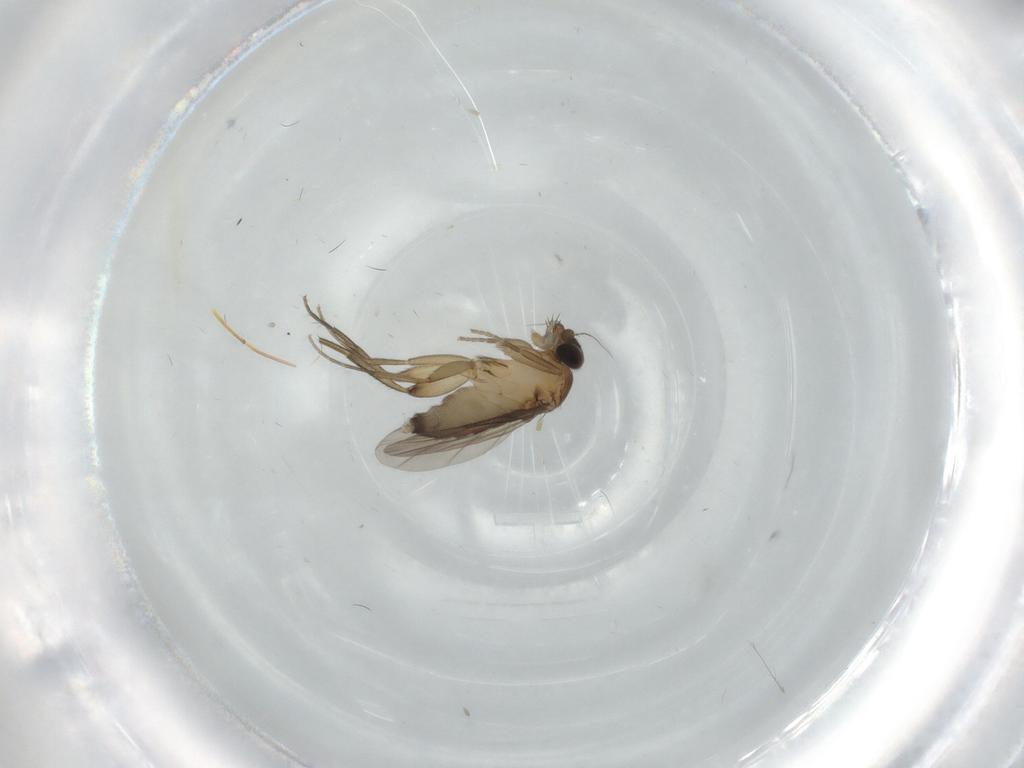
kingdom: Animalia
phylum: Arthropoda
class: Insecta
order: Diptera
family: Phoridae
